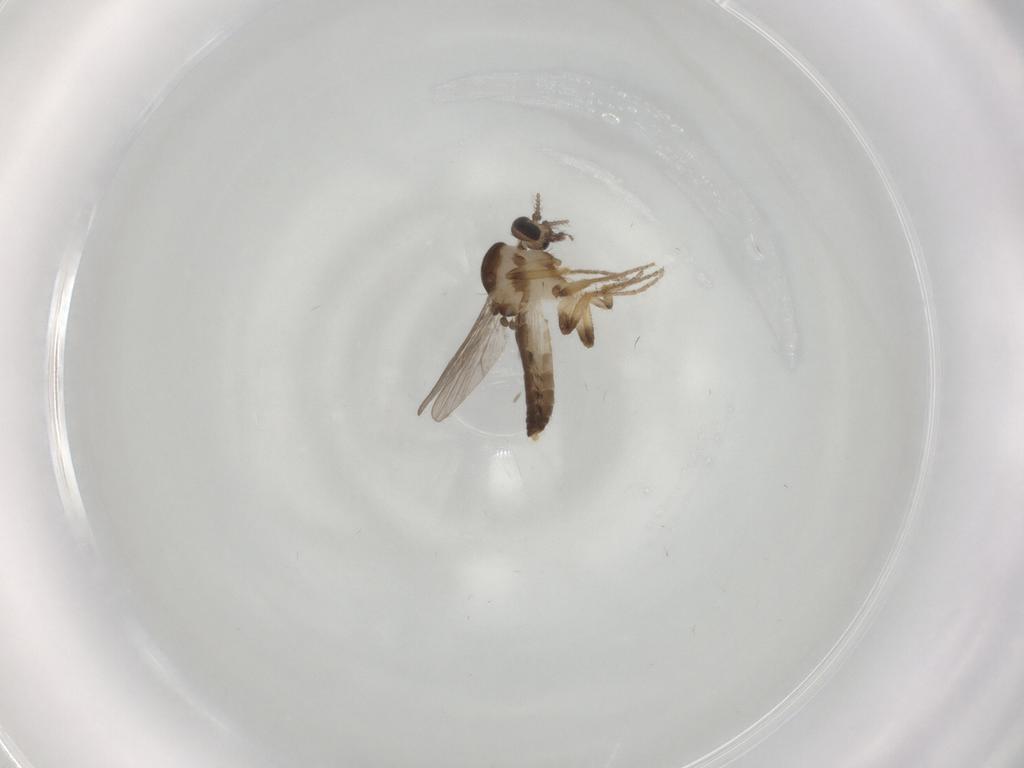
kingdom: Animalia
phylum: Arthropoda
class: Insecta
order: Diptera
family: Ceratopogonidae
